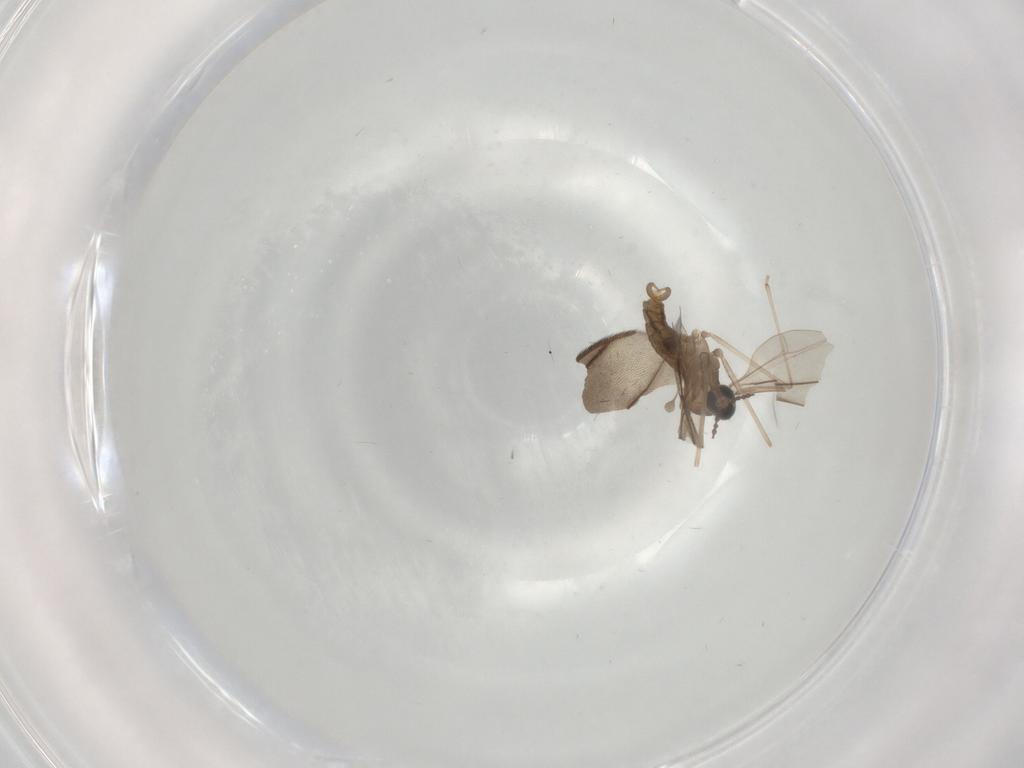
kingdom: Animalia
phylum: Arthropoda
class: Insecta
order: Diptera
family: Cecidomyiidae
